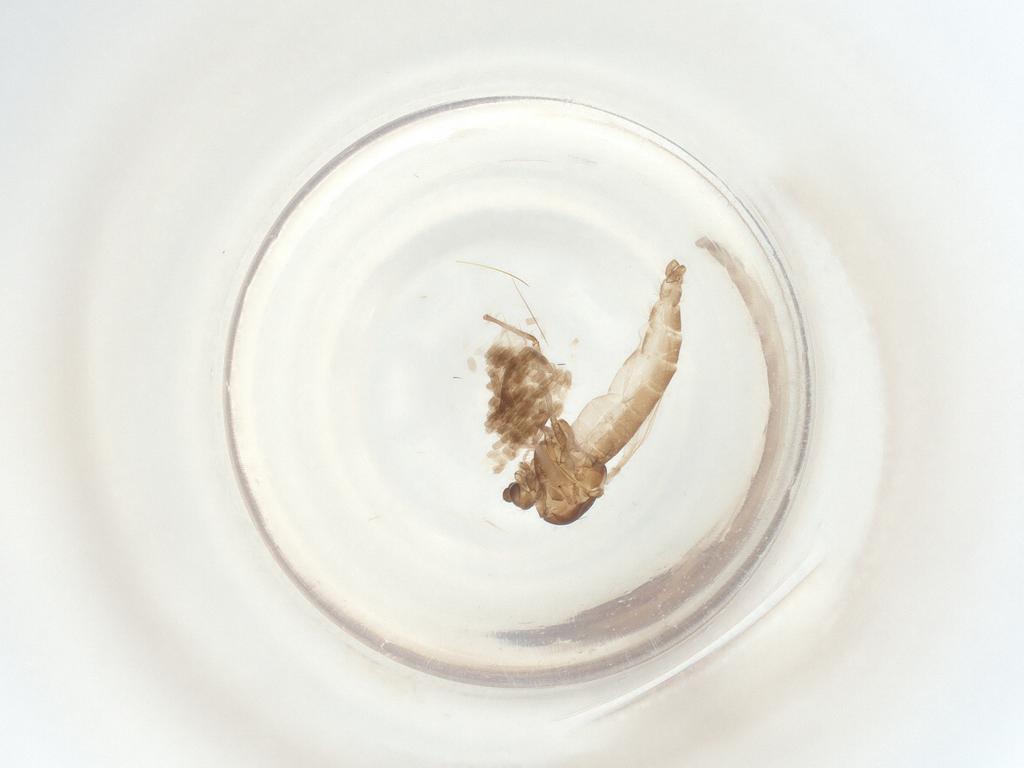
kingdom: Animalia
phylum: Arthropoda
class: Insecta
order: Diptera
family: Chironomidae
